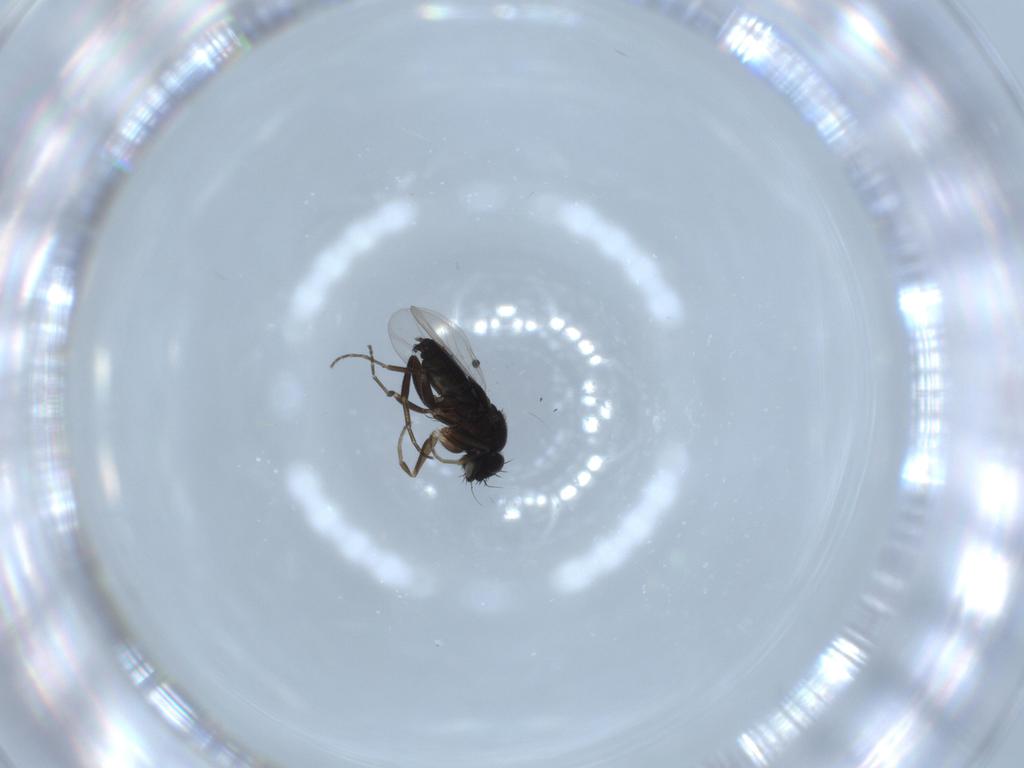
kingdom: Animalia
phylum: Arthropoda
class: Insecta
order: Diptera
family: Phoridae
